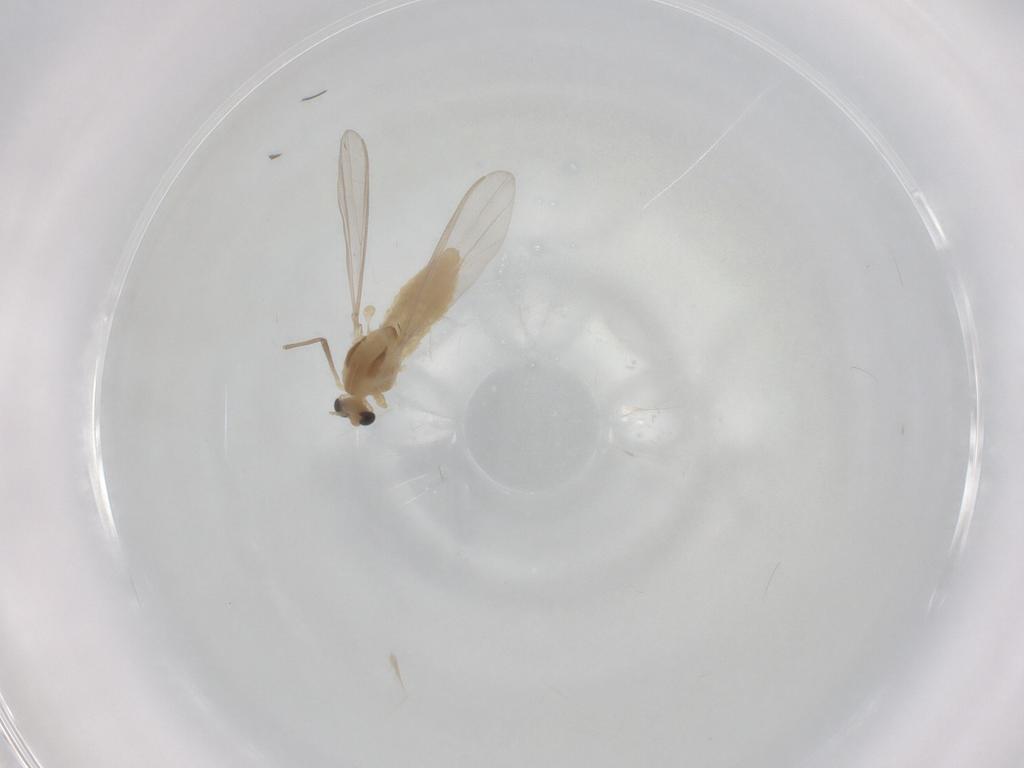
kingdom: Animalia
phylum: Arthropoda
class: Insecta
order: Diptera
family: Chironomidae
